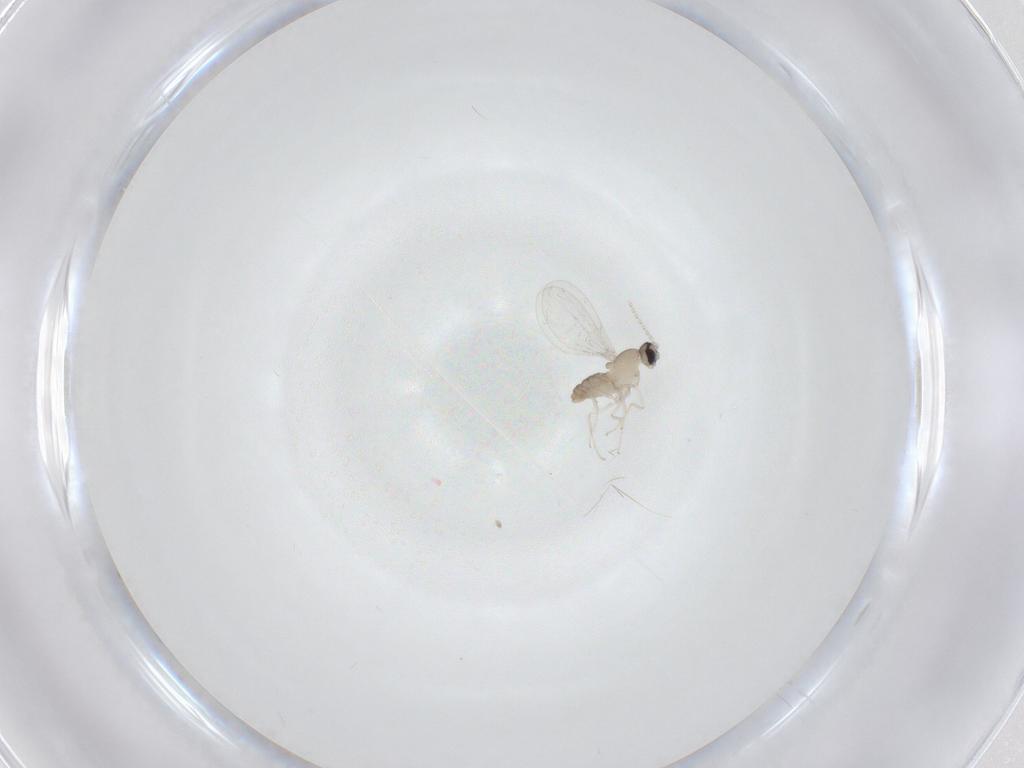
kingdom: Animalia
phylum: Arthropoda
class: Insecta
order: Diptera
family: Cecidomyiidae
